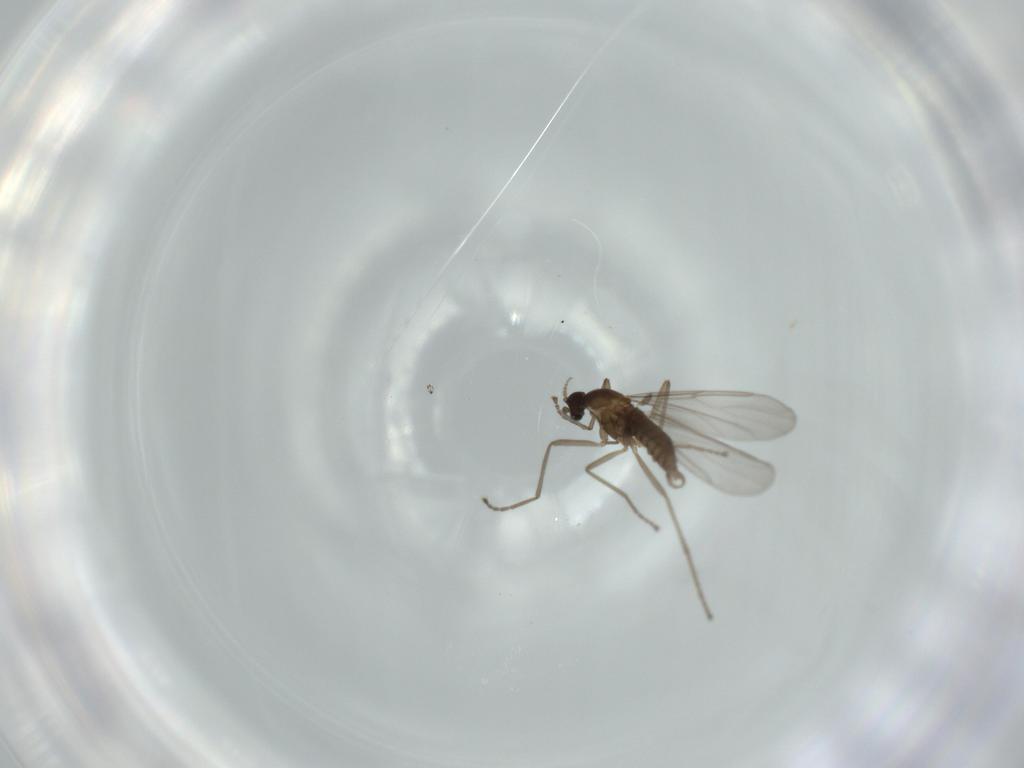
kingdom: Animalia
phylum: Arthropoda
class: Insecta
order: Diptera
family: Cecidomyiidae
